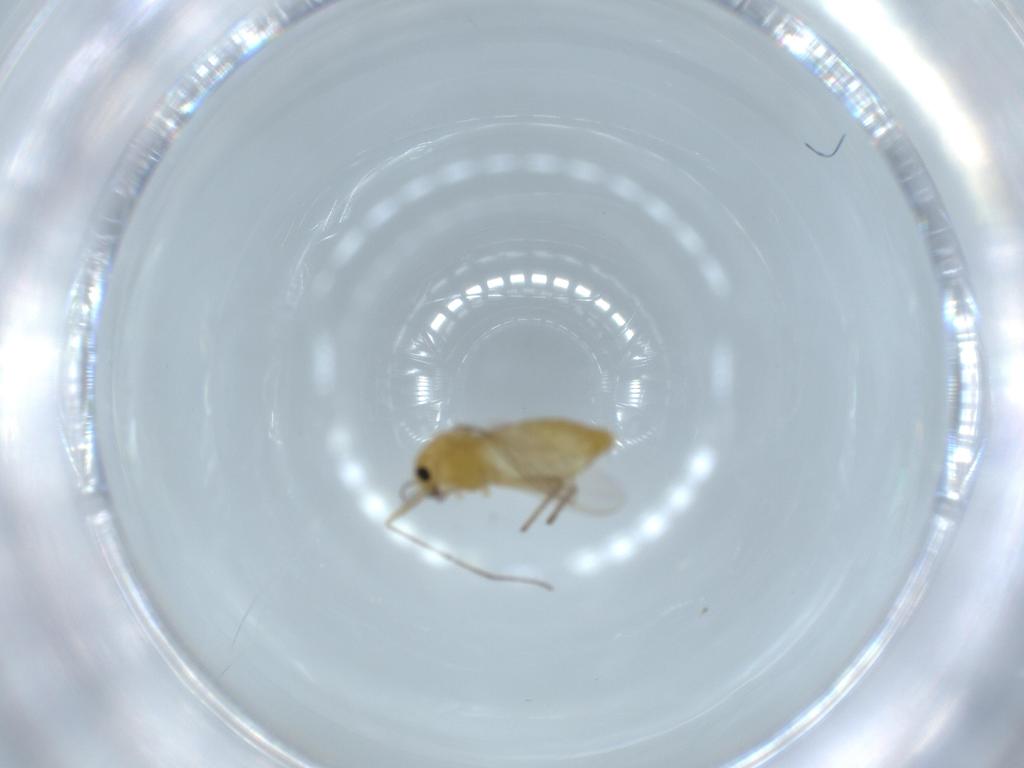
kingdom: Animalia
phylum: Arthropoda
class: Insecta
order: Diptera
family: Chironomidae
